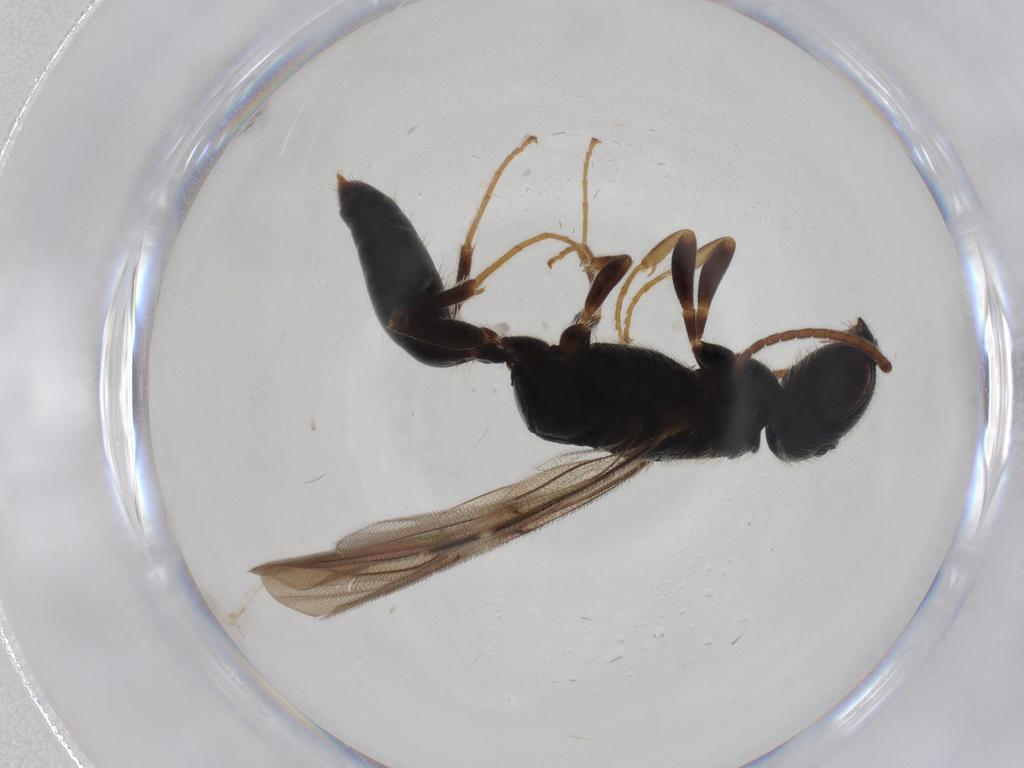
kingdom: Animalia
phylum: Arthropoda
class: Insecta
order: Hymenoptera
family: Bethylidae
